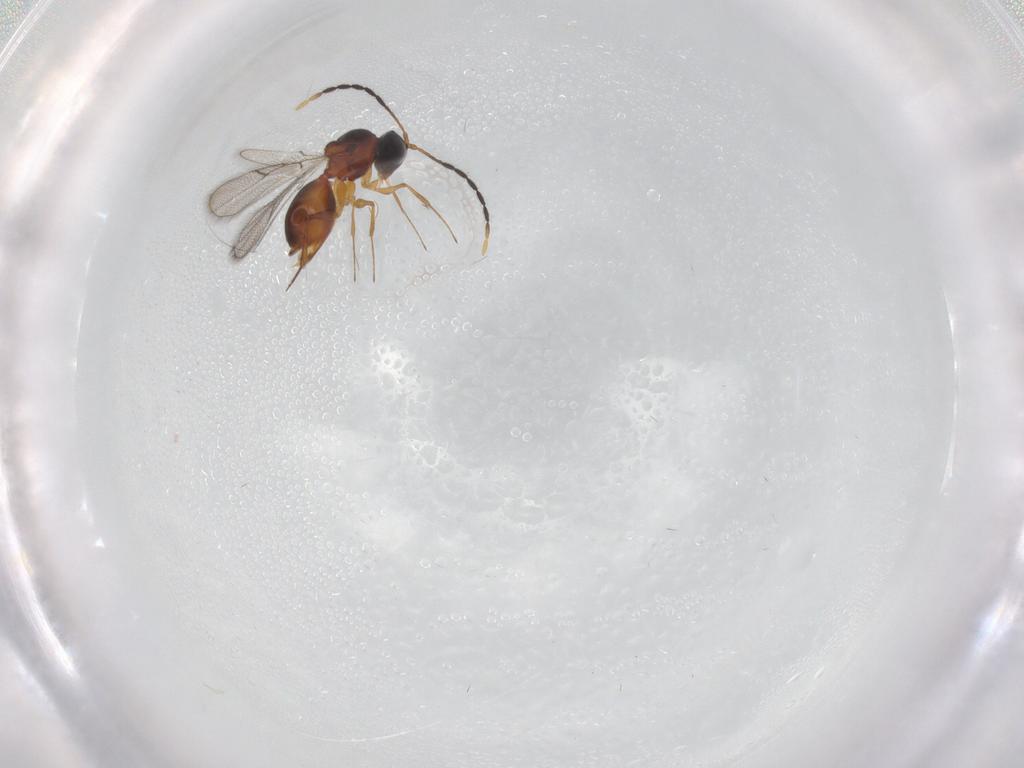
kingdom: Animalia
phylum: Arthropoda
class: Insecta
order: Hymenoptera
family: Figitidae
